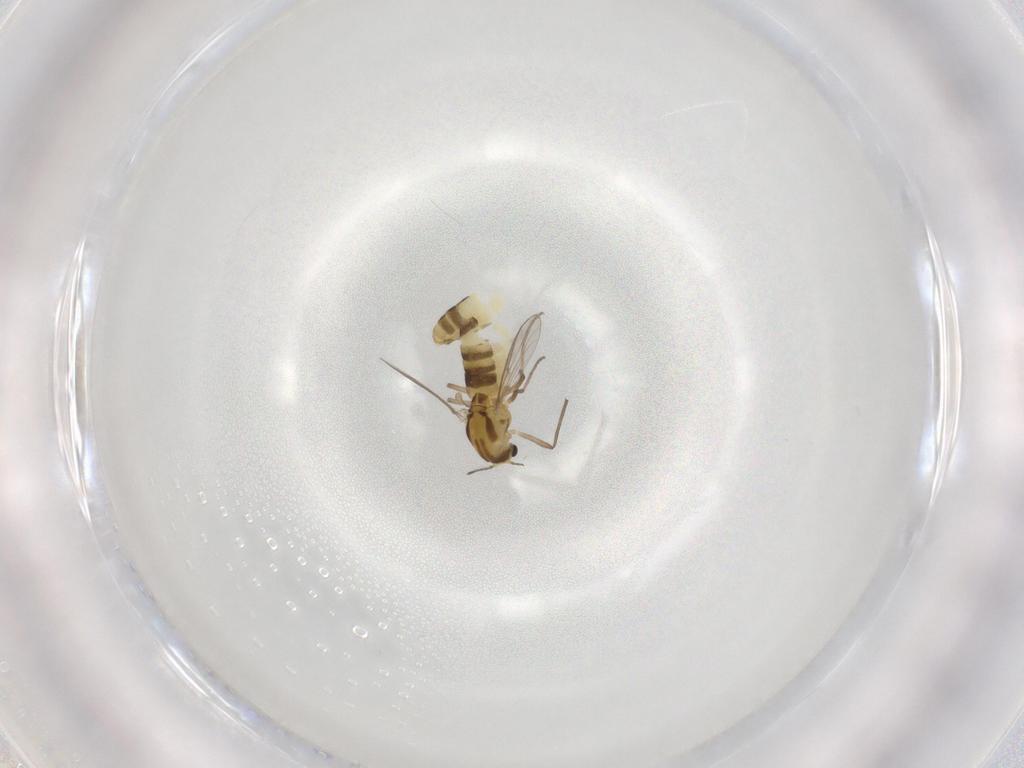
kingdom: Animalia
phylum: Arthropoda
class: Insecta
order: Diptera
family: Chironomidae
